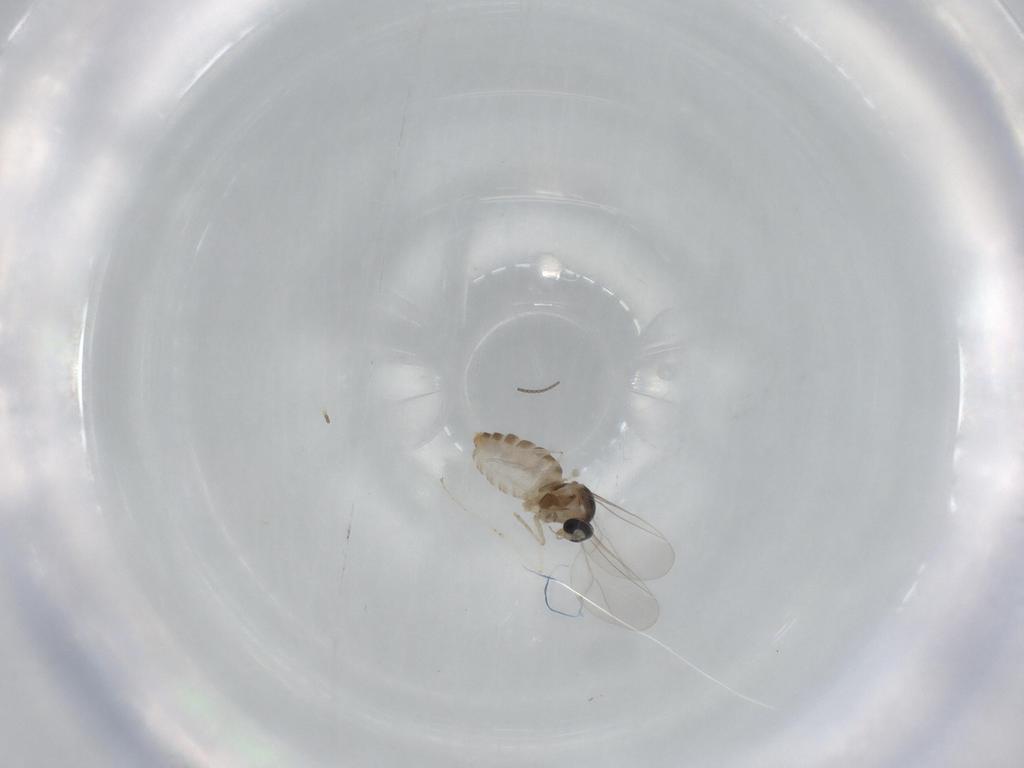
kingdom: Animalia
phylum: Arthropoda
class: Insecta
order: Diptera
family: Cecidomyiidae
